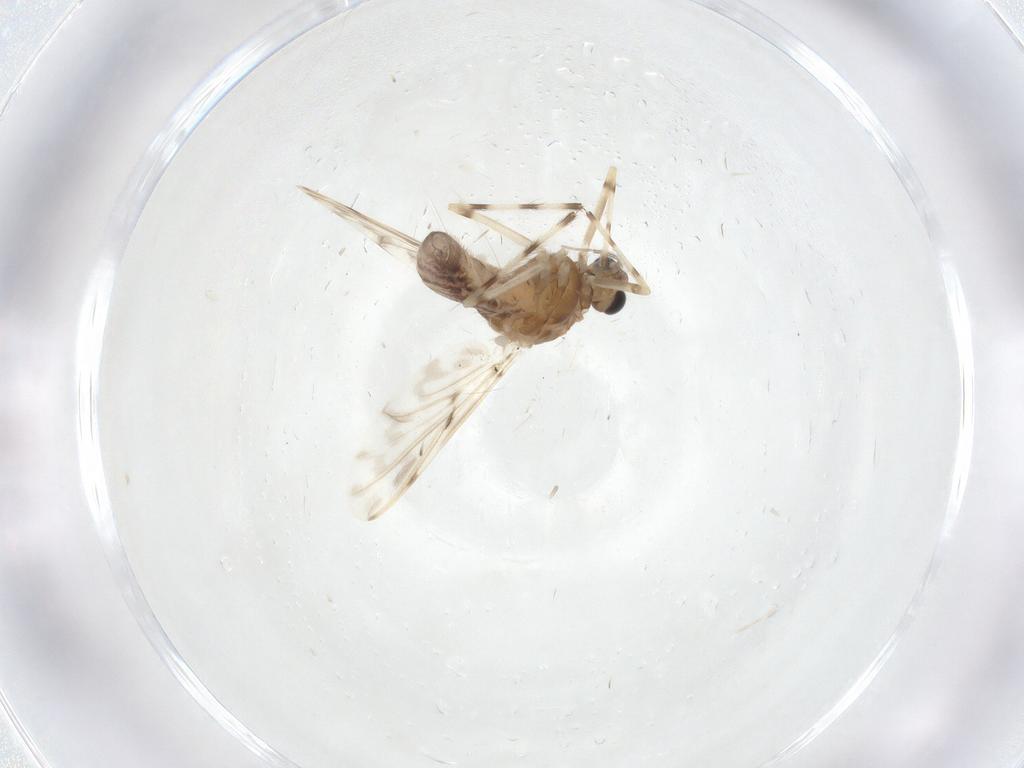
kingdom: Animalia
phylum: Arthropoda
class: Insecta
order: Diptera
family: Chironomidae
